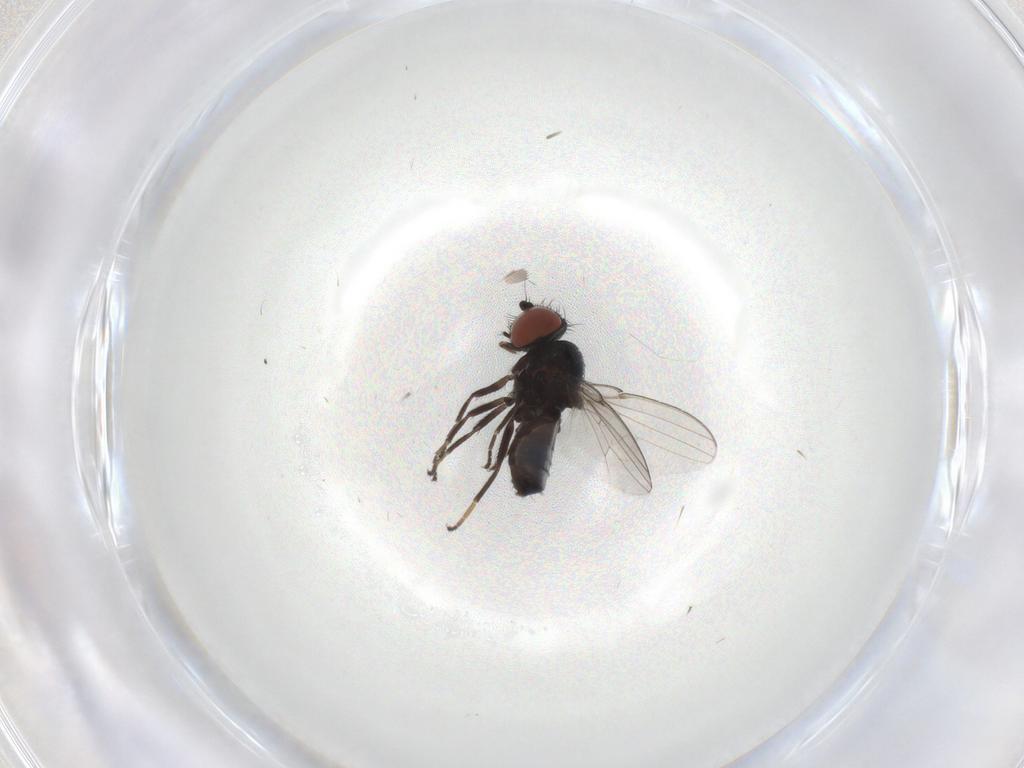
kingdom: Animalia
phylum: Arthropoda
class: Insecta
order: Diptera
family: Milichiidae
